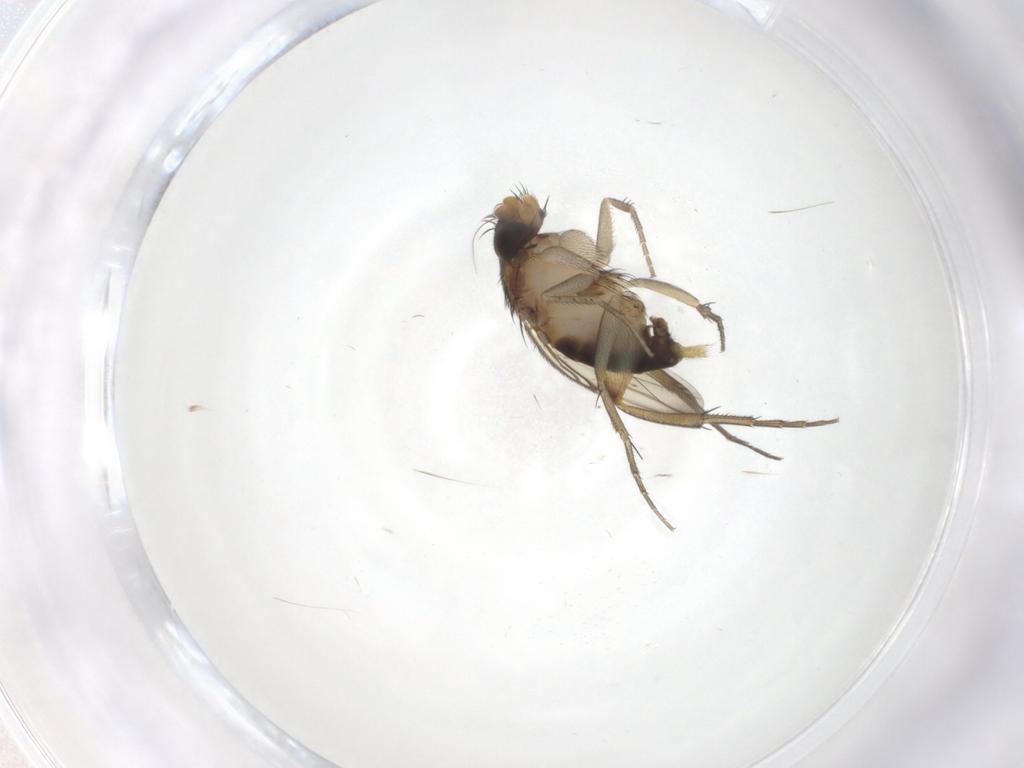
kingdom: Animalia
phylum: Arthropoda
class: Insecta
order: Diptera
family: Phoridae
